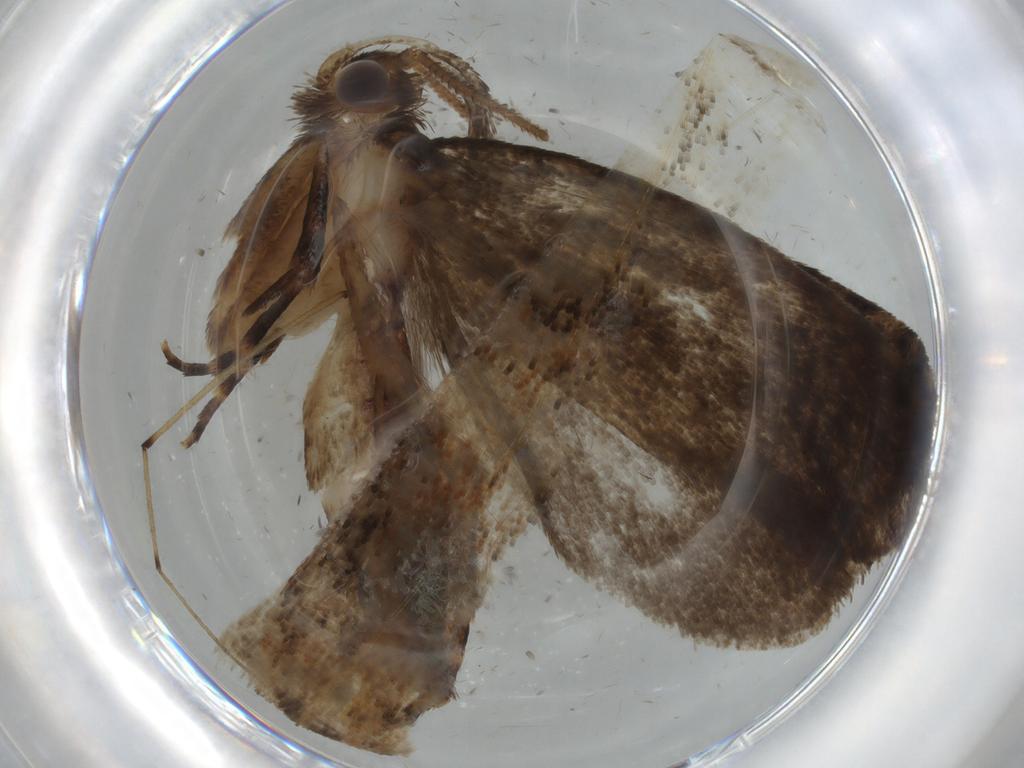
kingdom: Animalia
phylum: Arthropoda
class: Insecta
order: Lepidoptera
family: Tineidae
